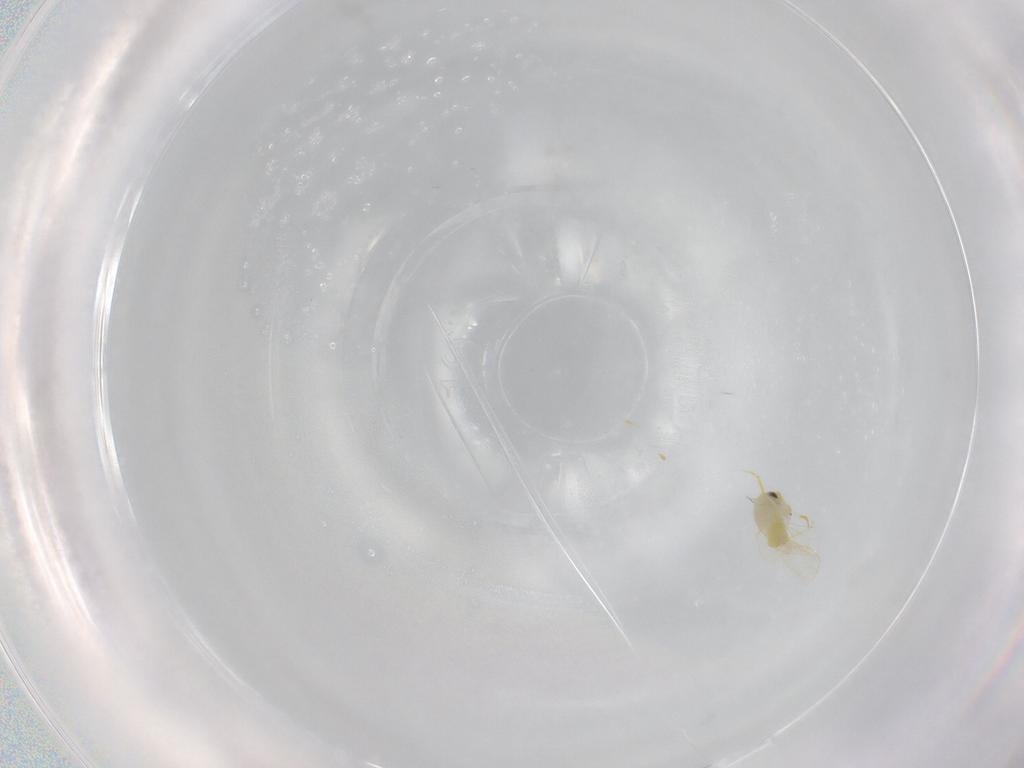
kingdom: Animalia
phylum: Arthropoda
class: Insecta
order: Hemiptera
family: Aleyrodidae
